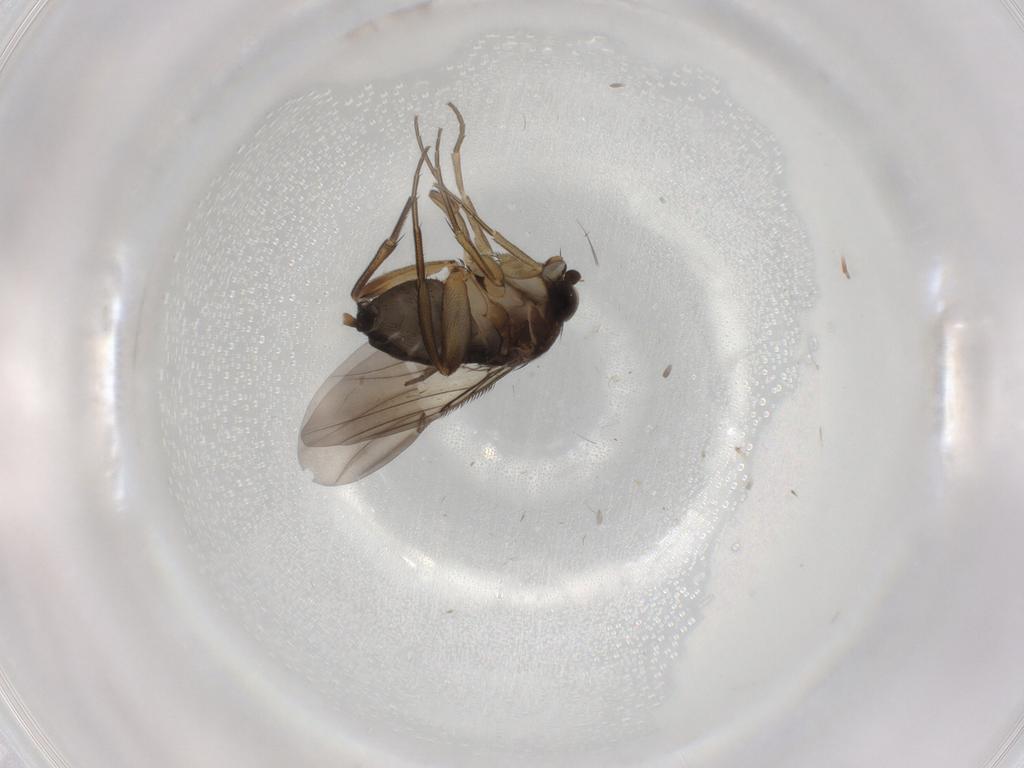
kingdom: Animalia
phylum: Arthropoda
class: Insecta
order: Diptera
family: Phoridae
